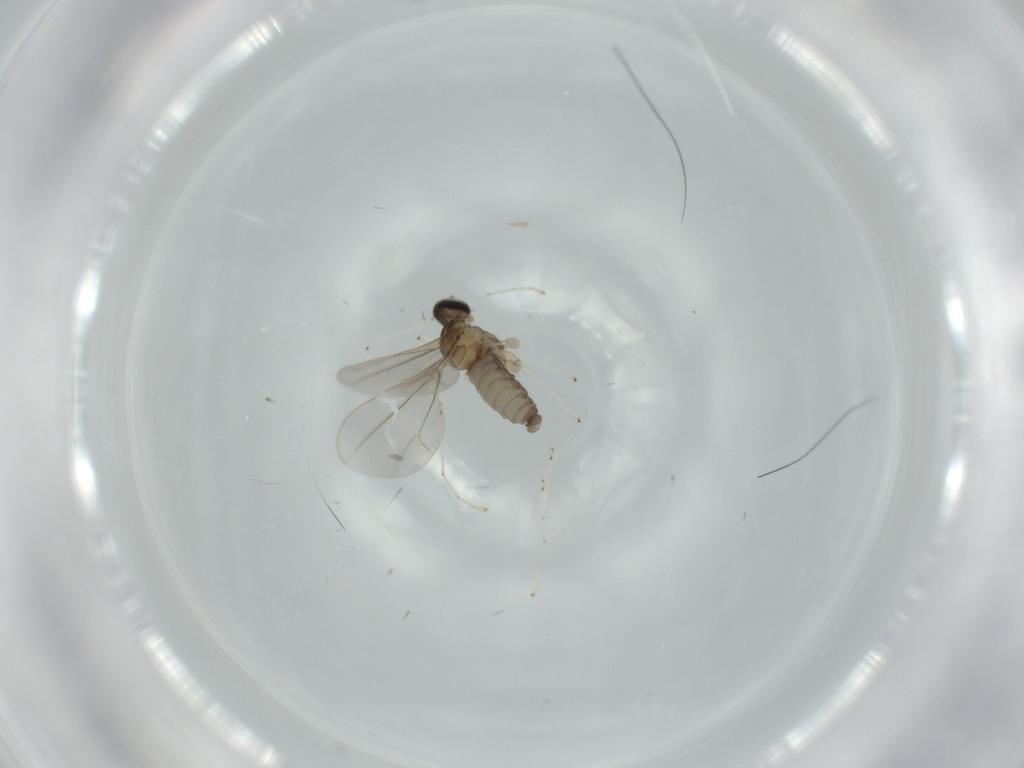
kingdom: Animalia
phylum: Arthropoda
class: Insecta
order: Diptera
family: Cecidomyiidae
